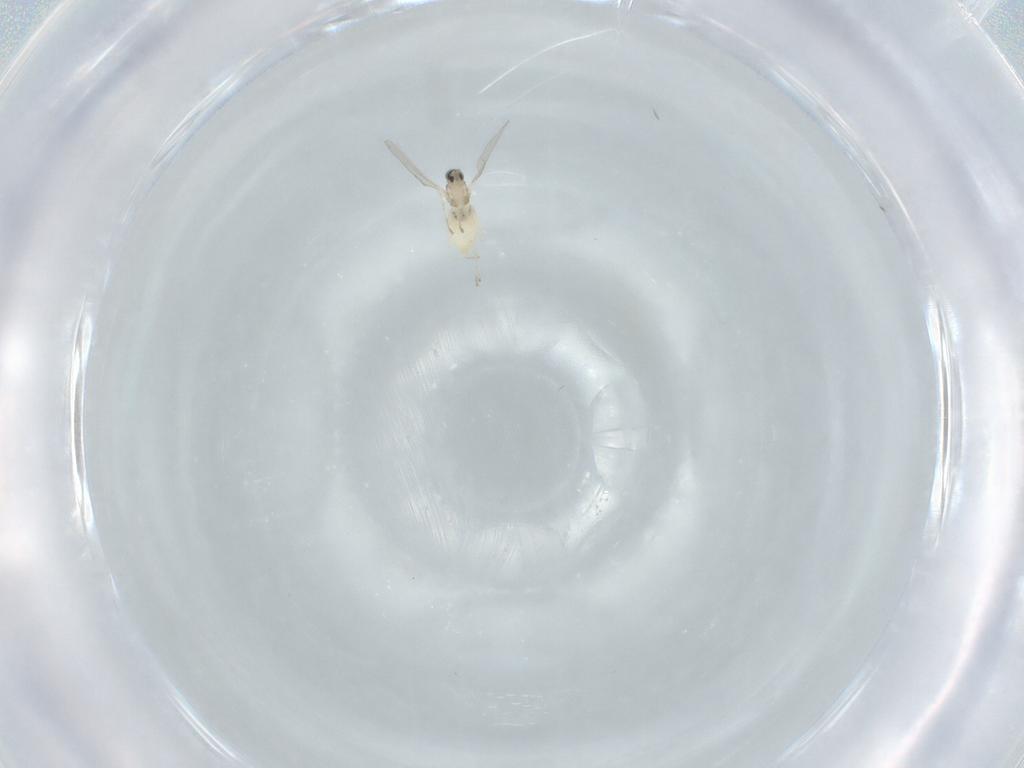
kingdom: Animalia
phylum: Arthropoda
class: Insecta
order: Diptera
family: Cecidomyiidae
